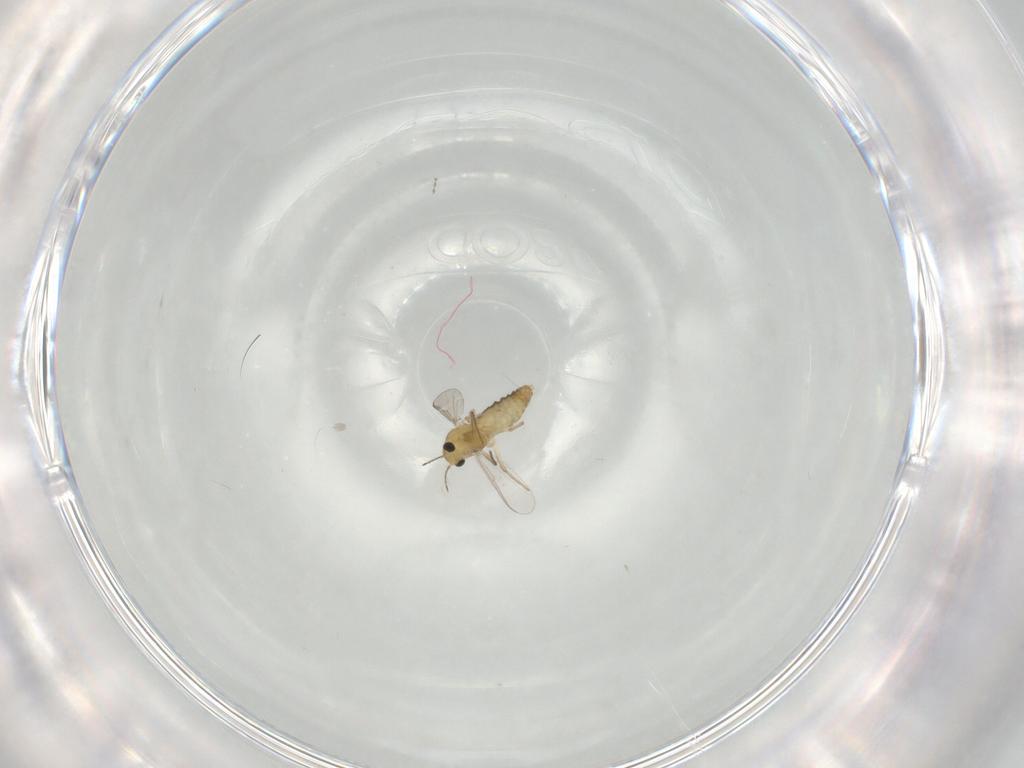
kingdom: Animalia
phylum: Arthropoda
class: Insecta
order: Diptera
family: Chironomidae
